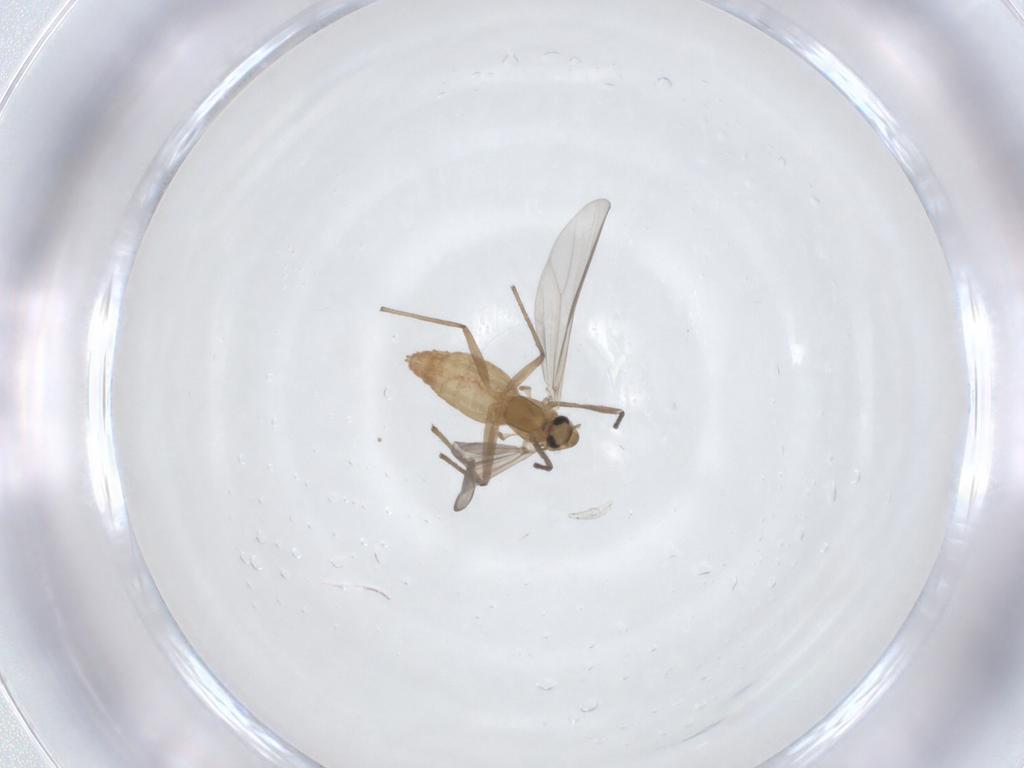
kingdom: Animalia
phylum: Arthropoda
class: Insecta
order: Diptera
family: Chironomidae
